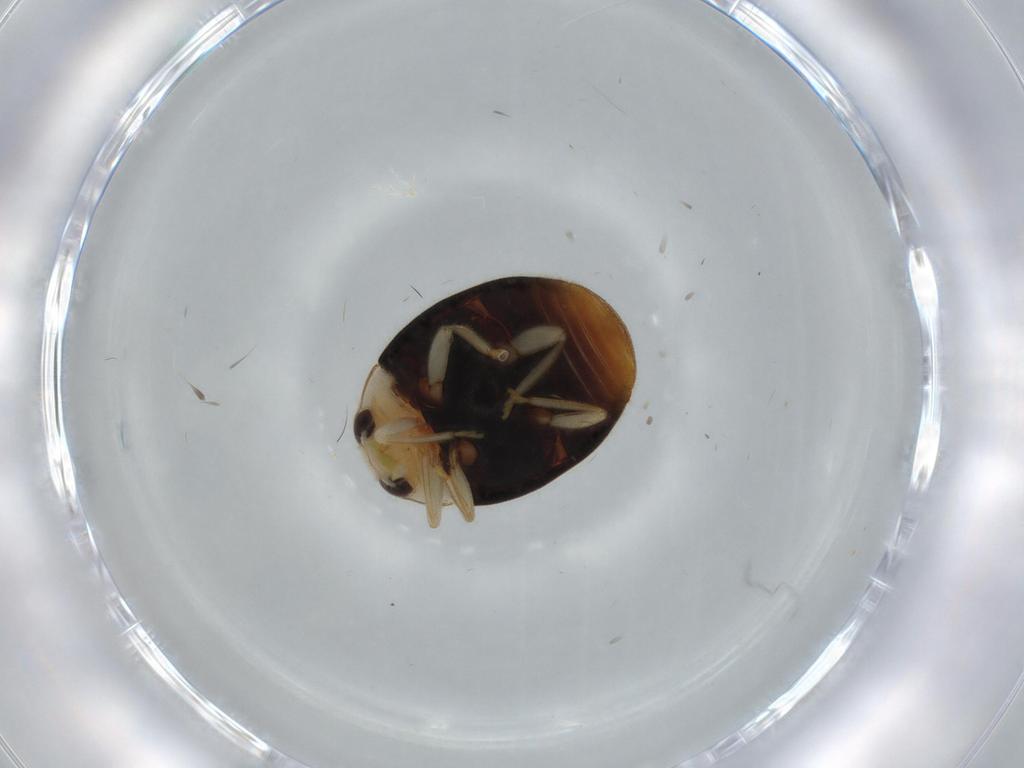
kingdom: Animalia
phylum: Arthropoda
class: Insecta
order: Coleoptera
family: Coccinellidae
